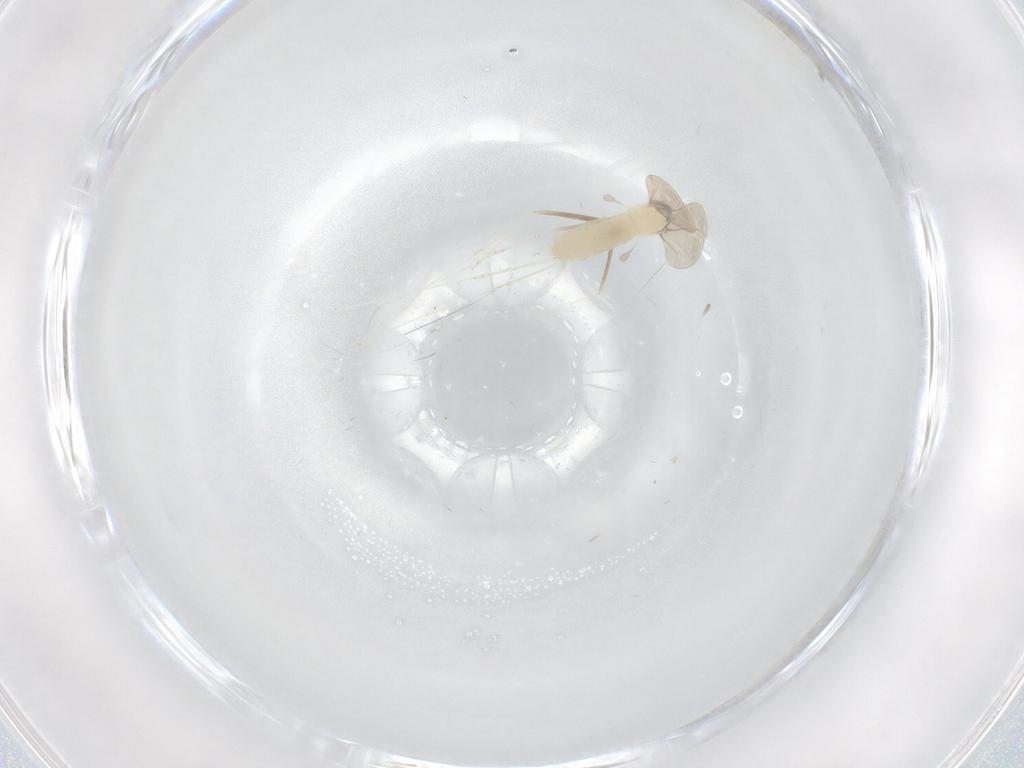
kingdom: Animalia
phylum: Arthropoda
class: Insecta
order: Diptera
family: Cecidomyiidae
